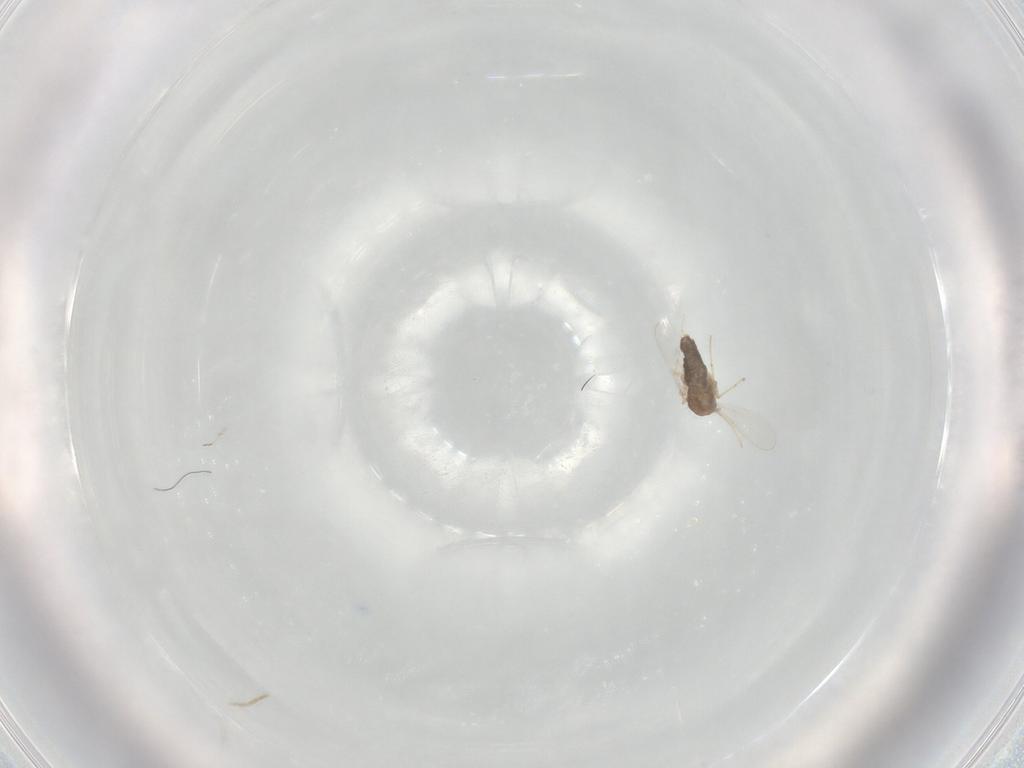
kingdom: Animalia
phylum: Arthropoda
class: Insecta
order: Diptera
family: Chironomidae
